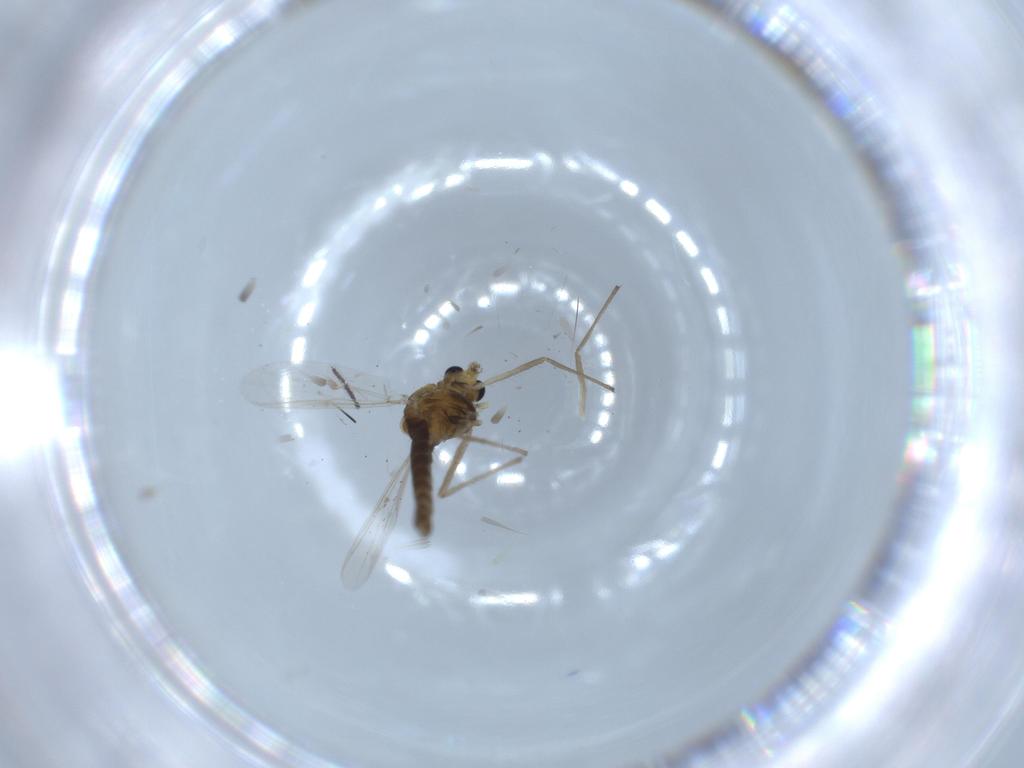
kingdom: Animalia
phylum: Arthropoda
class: Insecta
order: Diptera
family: Chironomidae
